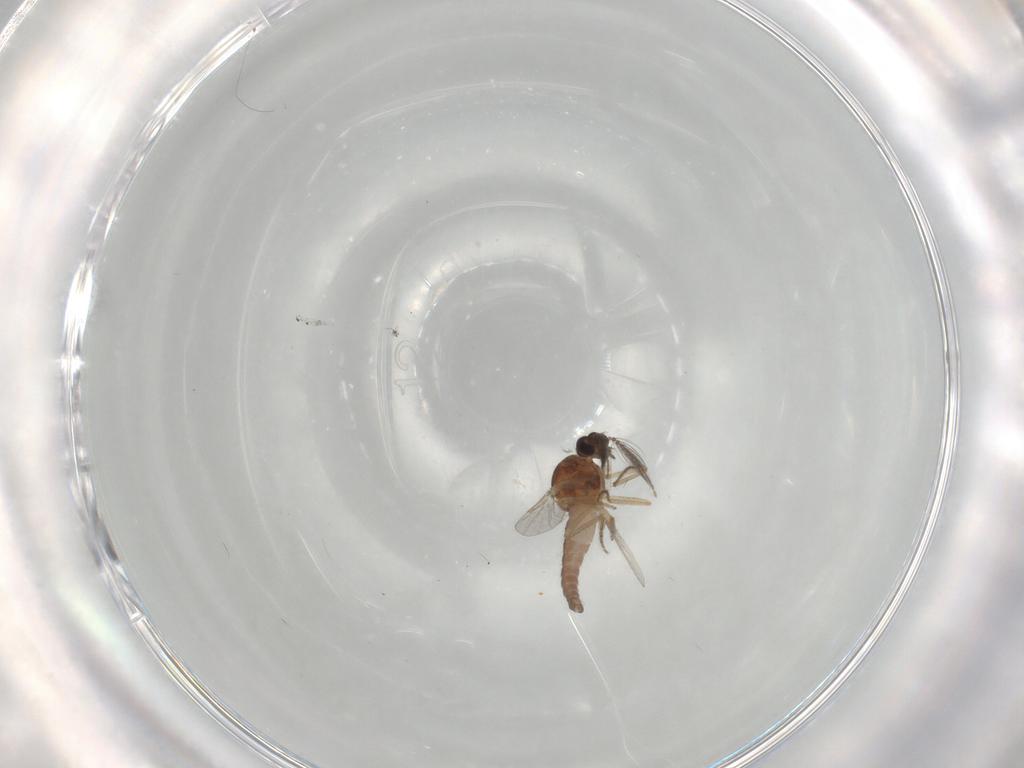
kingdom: Animalia
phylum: Arthropoda
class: Insecta
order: Diptera
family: Sciaridae
